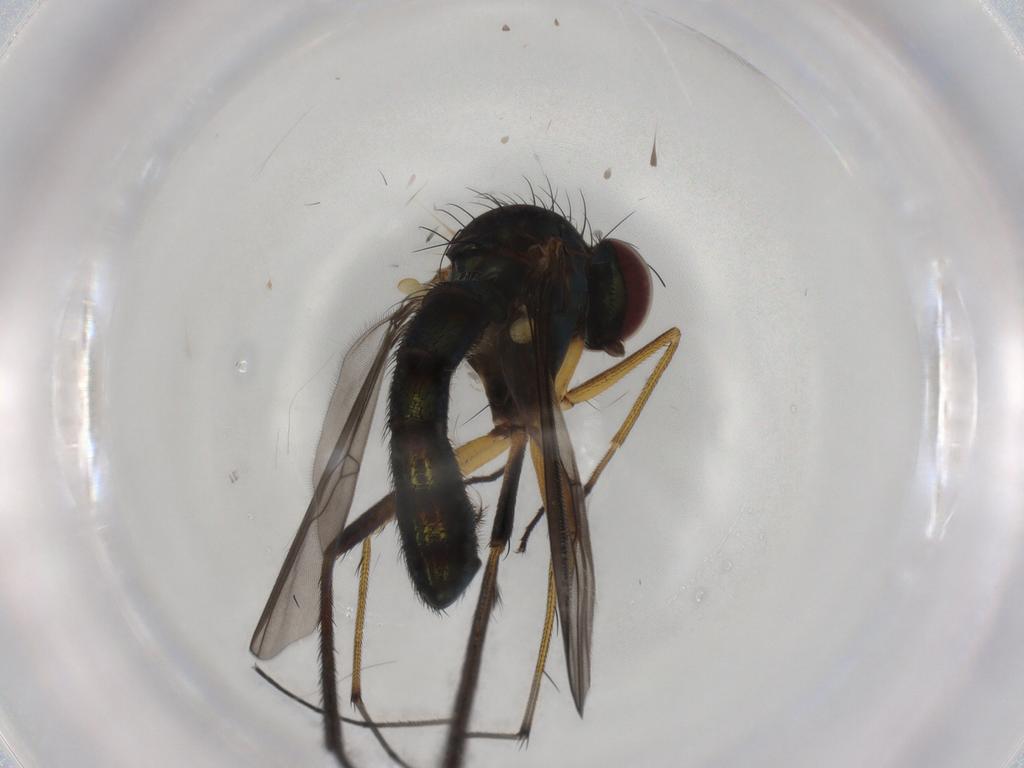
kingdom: Animalia
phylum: Arthropoda
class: Insecta
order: Diptera
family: Dolichopodidae
